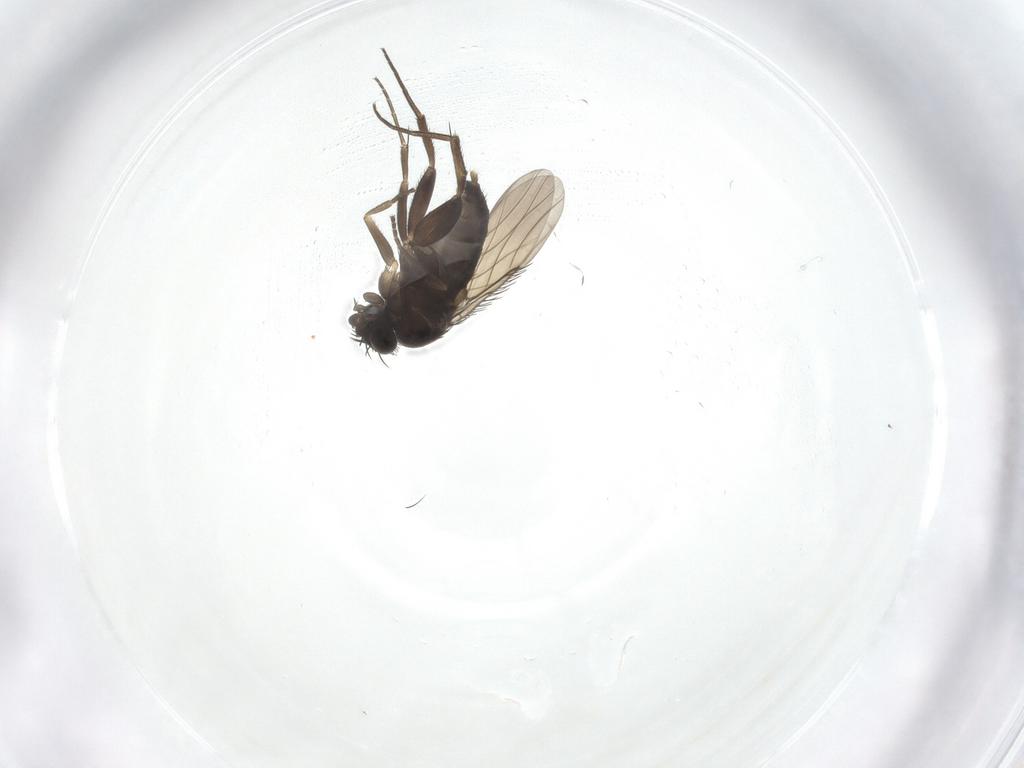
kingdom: Animalia
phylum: Arthropoda
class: Insecta
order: Diptera
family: Phoridae
